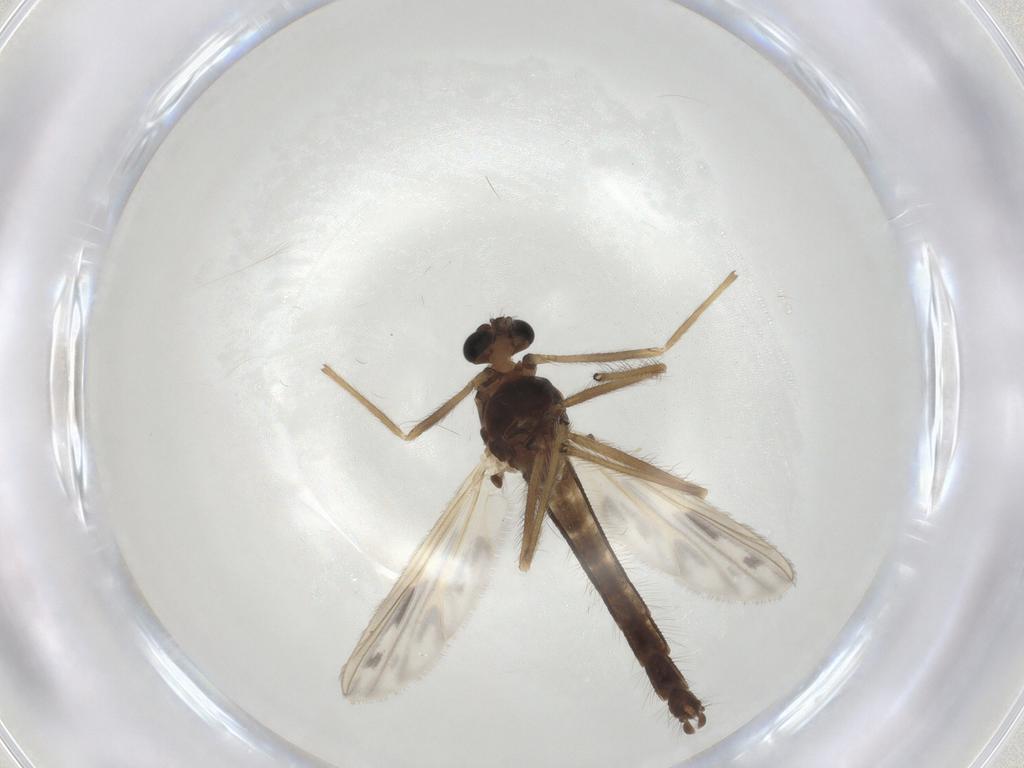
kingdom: Animalia
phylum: Arthropoda
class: Insecta
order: Diptera
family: Chironomidae
